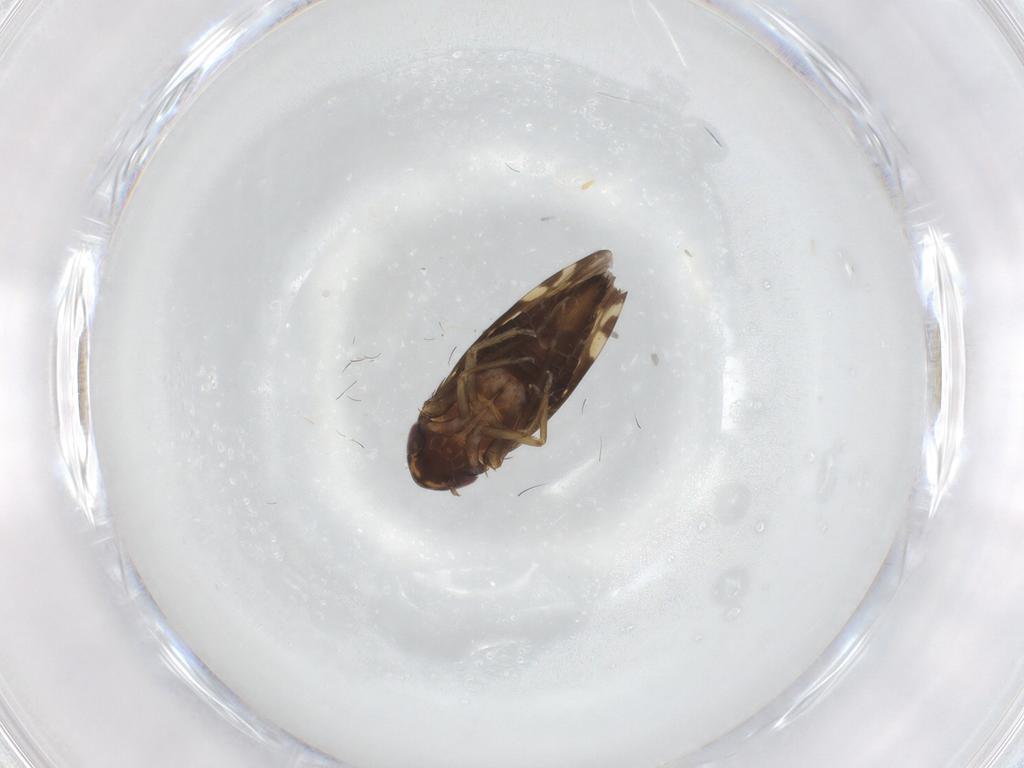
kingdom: Animalia
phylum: Arthropoda
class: Insecta
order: Hemiptera
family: Cicadellidae
